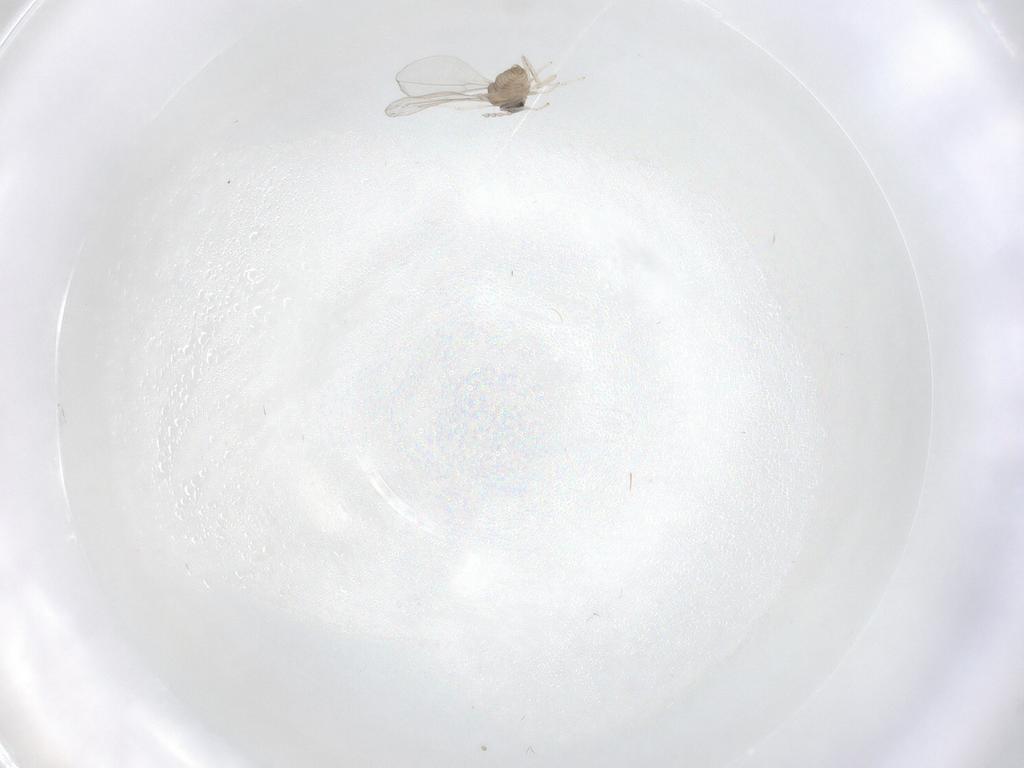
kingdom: Animalia
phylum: Arthropoda
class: Insecta
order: Diptera
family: Cecidomyiidae
